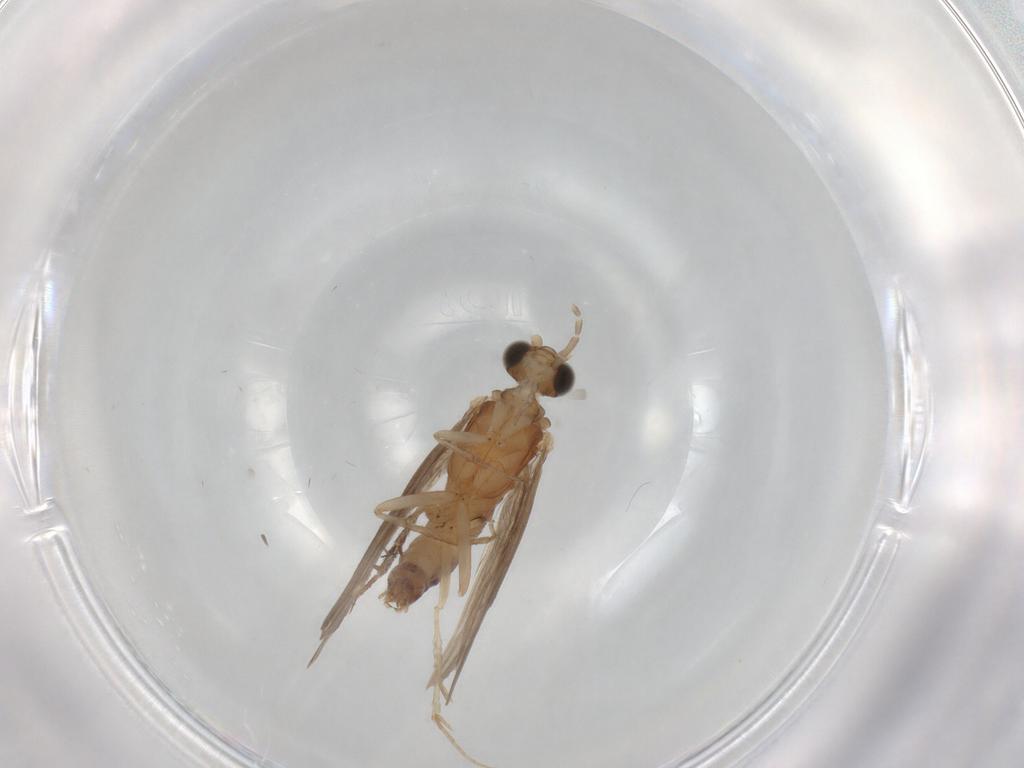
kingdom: Animalia
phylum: Arthropoda
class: Insecta
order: Trichoptera
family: Psychomyiidae
